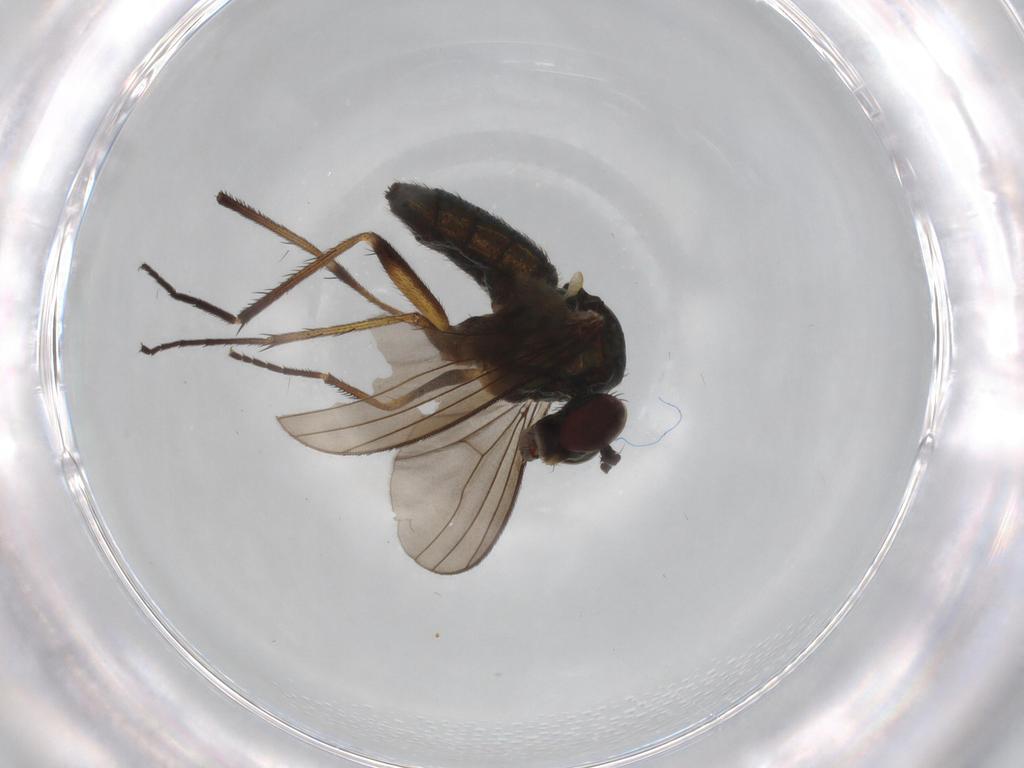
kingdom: Animalia
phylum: Arthropoda
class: Insecta
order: Diptera
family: Dolichopodidae
